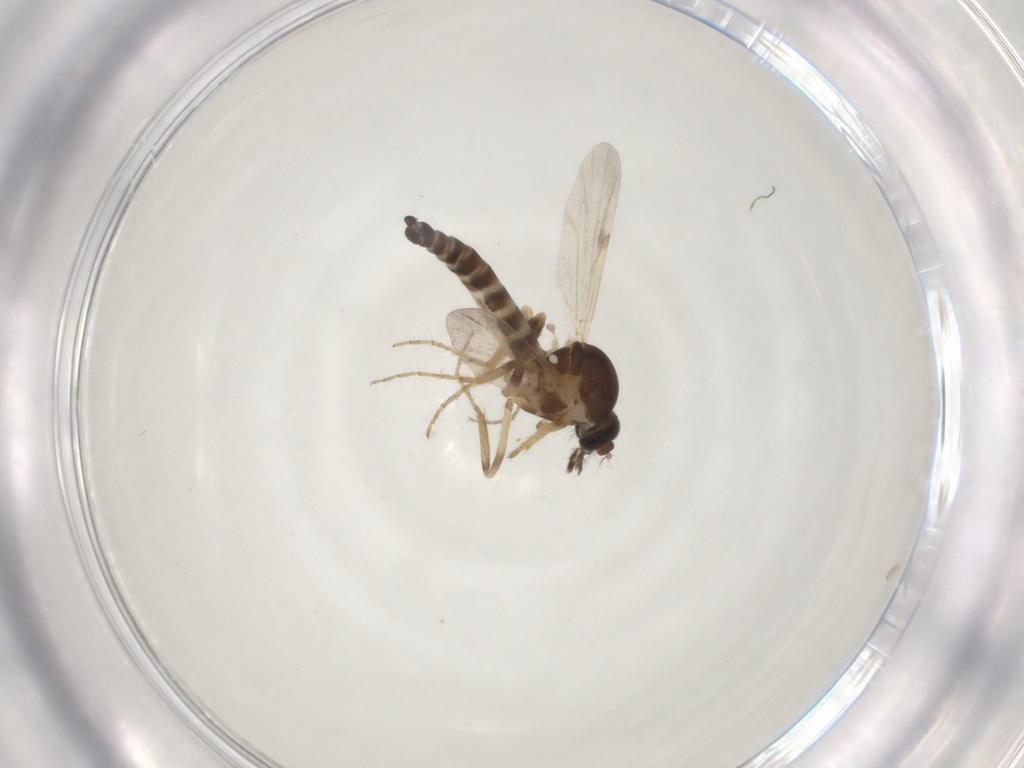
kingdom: Animalia
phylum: Arthropoda
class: Insecta
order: Diptera
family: Ceratopogonidae
